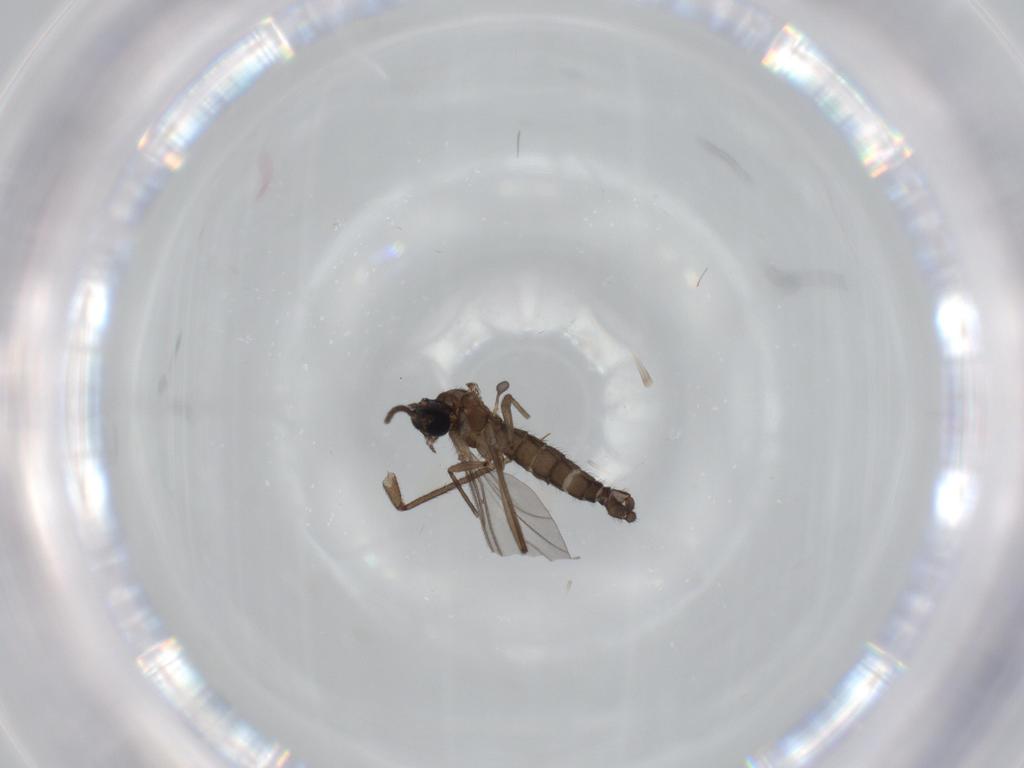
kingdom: Animalia
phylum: Arthropoda
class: Insecta
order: Diptera
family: Sciaridae
